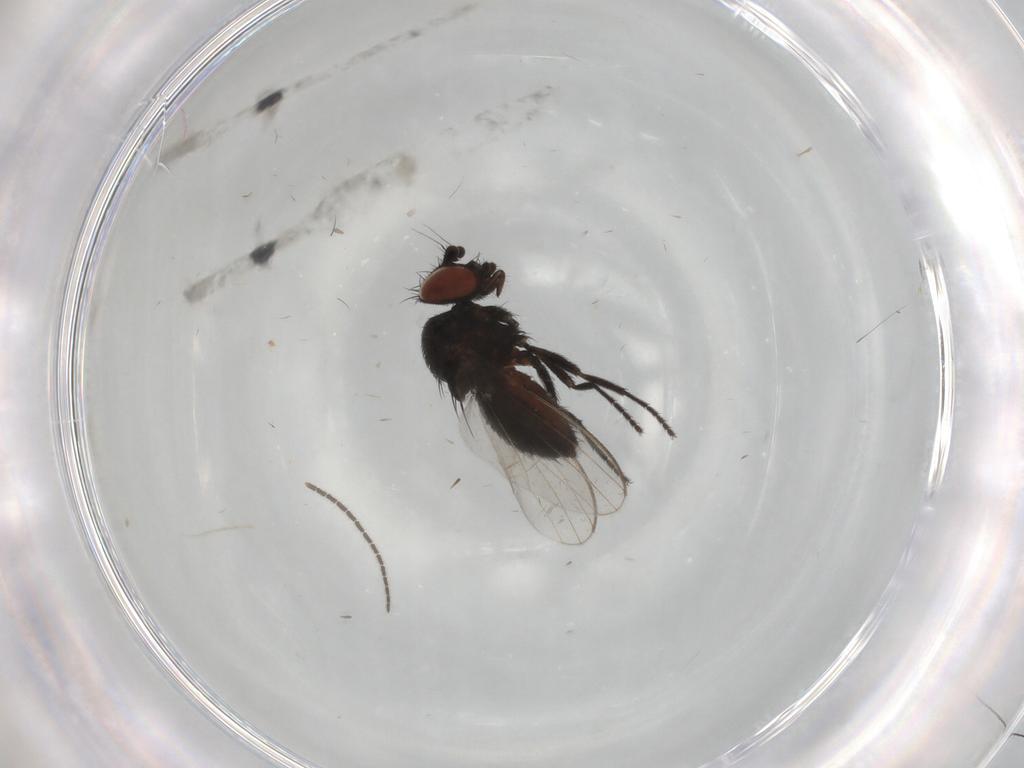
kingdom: Animalia
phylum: Arthropoda
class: Insecta
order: Diptera
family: Milichiidae
